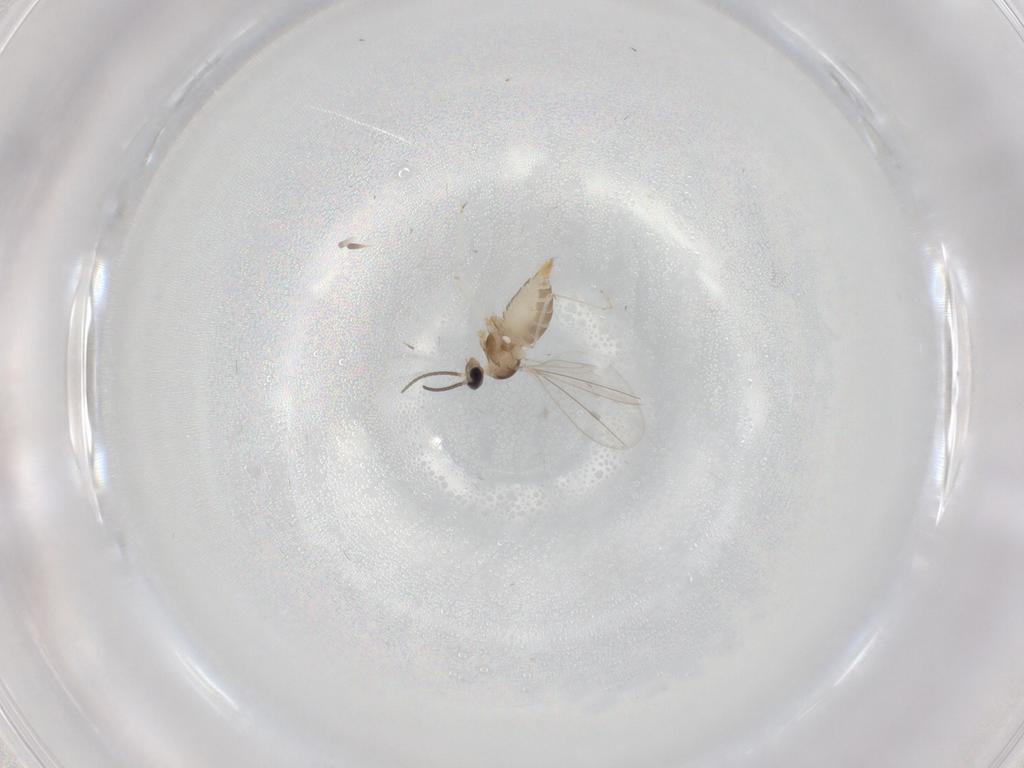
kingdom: Animalia
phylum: Arthropoda
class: Insecta
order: Diptera
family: Cecidomyiidae
